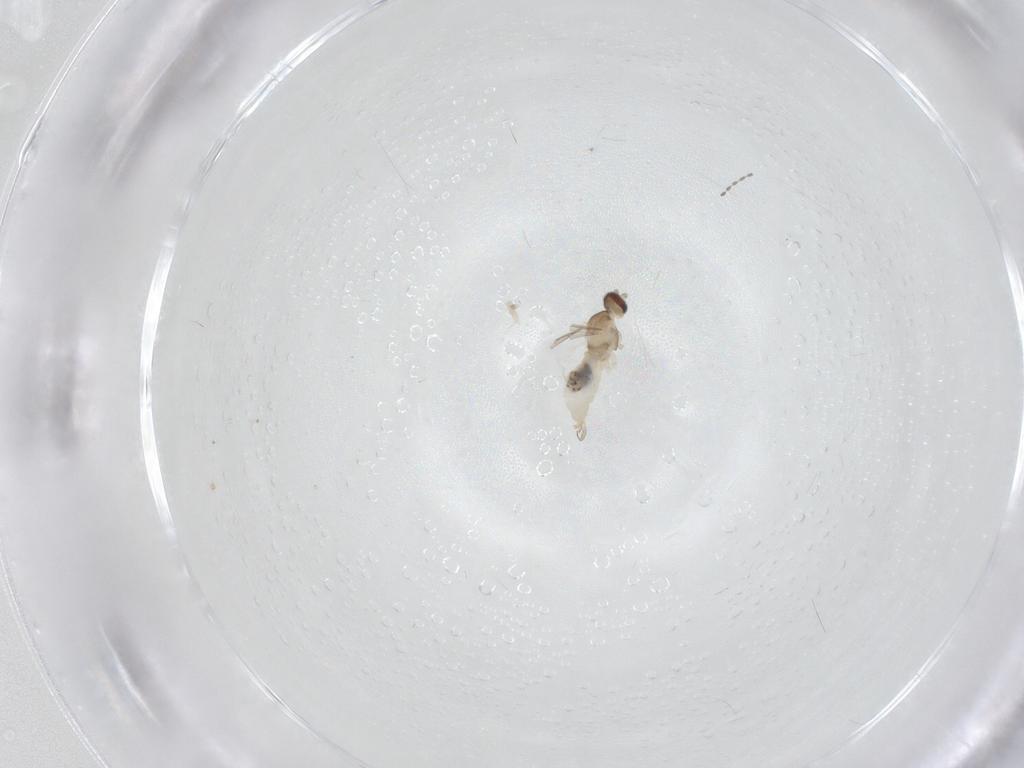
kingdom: Animalia
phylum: Arthropoda
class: Insecta
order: Diptera
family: Cecidomyiidae
